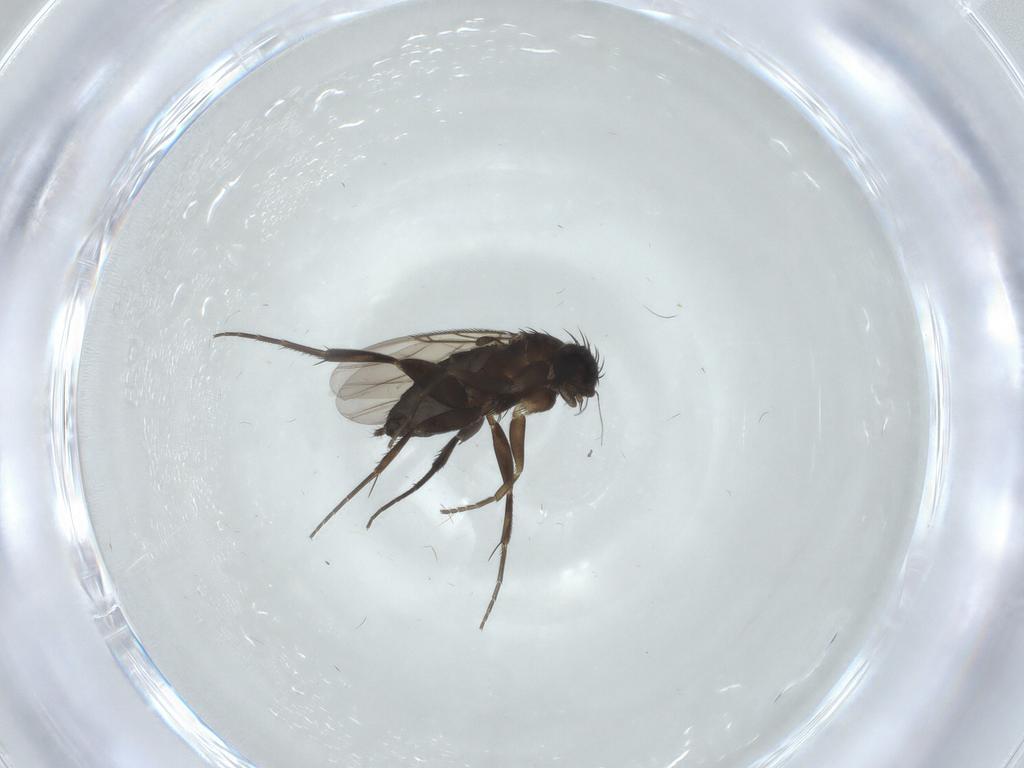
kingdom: Animalia
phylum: Arthropoda
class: Insecta
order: Diptera
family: Phoridae
